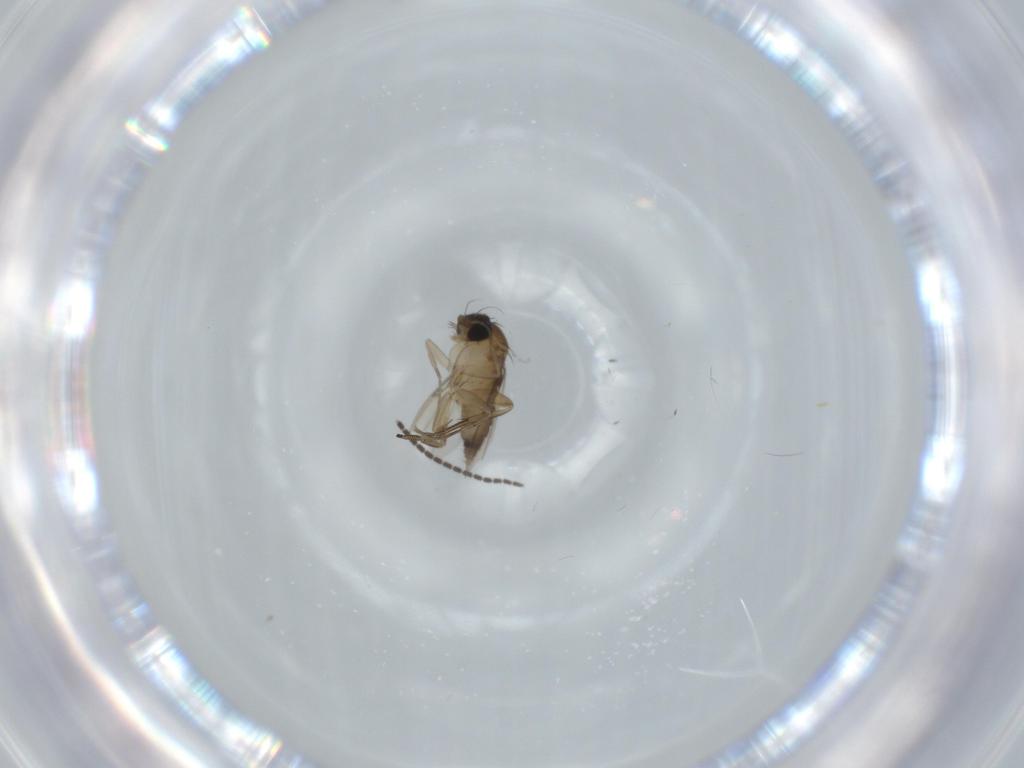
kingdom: Animalia
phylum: Arthropoda
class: Insecta
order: Diptera
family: Phoridae
